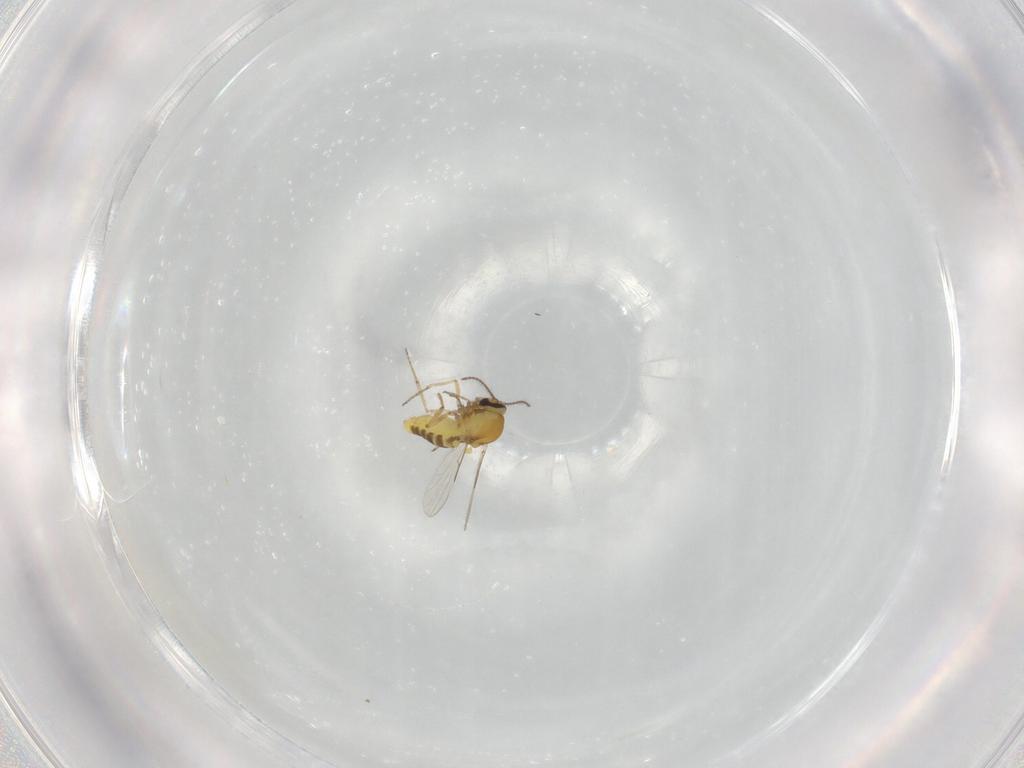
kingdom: Animalia
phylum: Arthropoda
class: Insecta
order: Diptera
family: Ceratopogonidae
